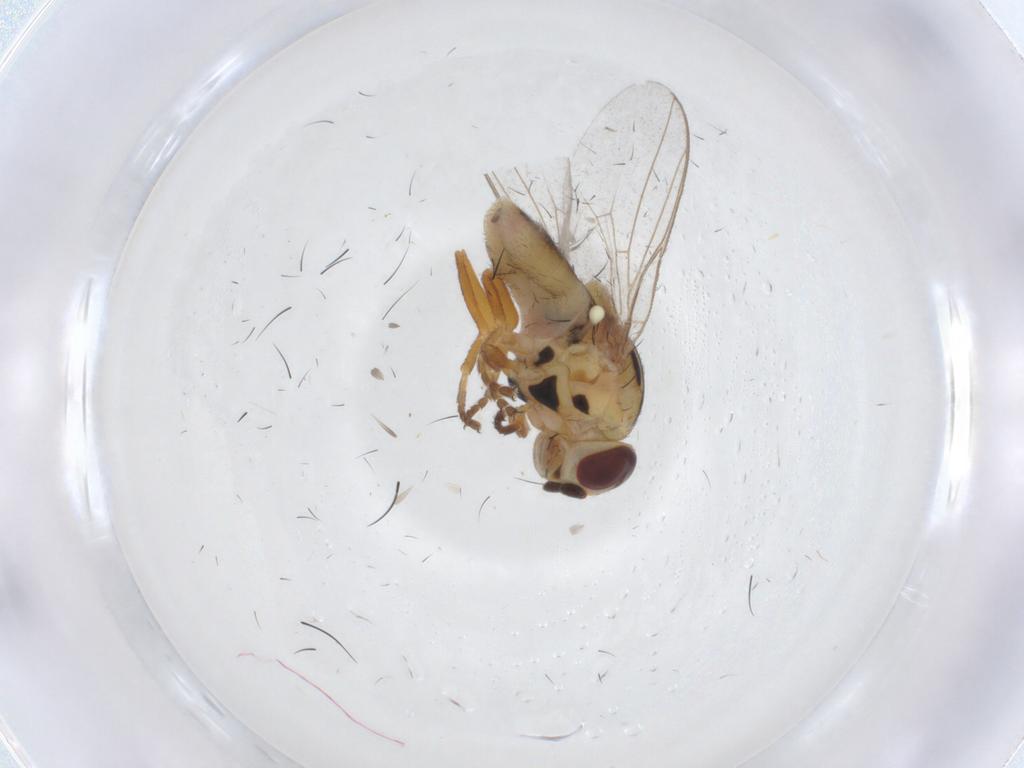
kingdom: Animalia
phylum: Arthropoda
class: Insecta
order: Diptera
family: Chloropidae
